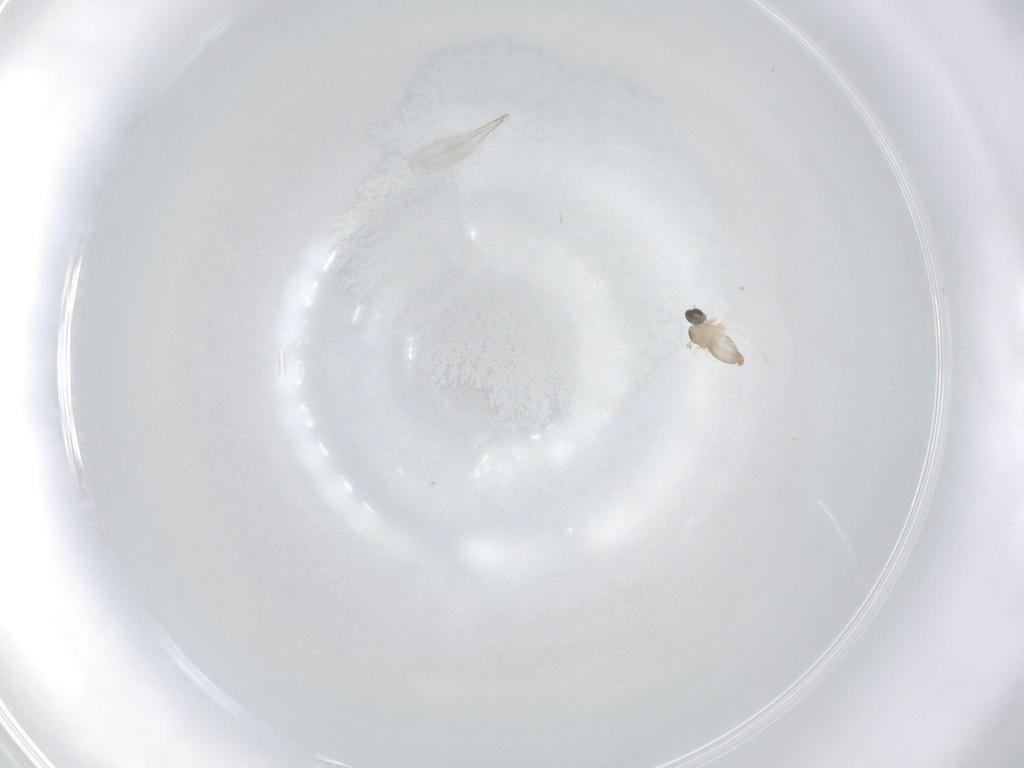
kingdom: Animalia
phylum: Arthropoda
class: Insecta
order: Diptera
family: Cecidomyiidae
